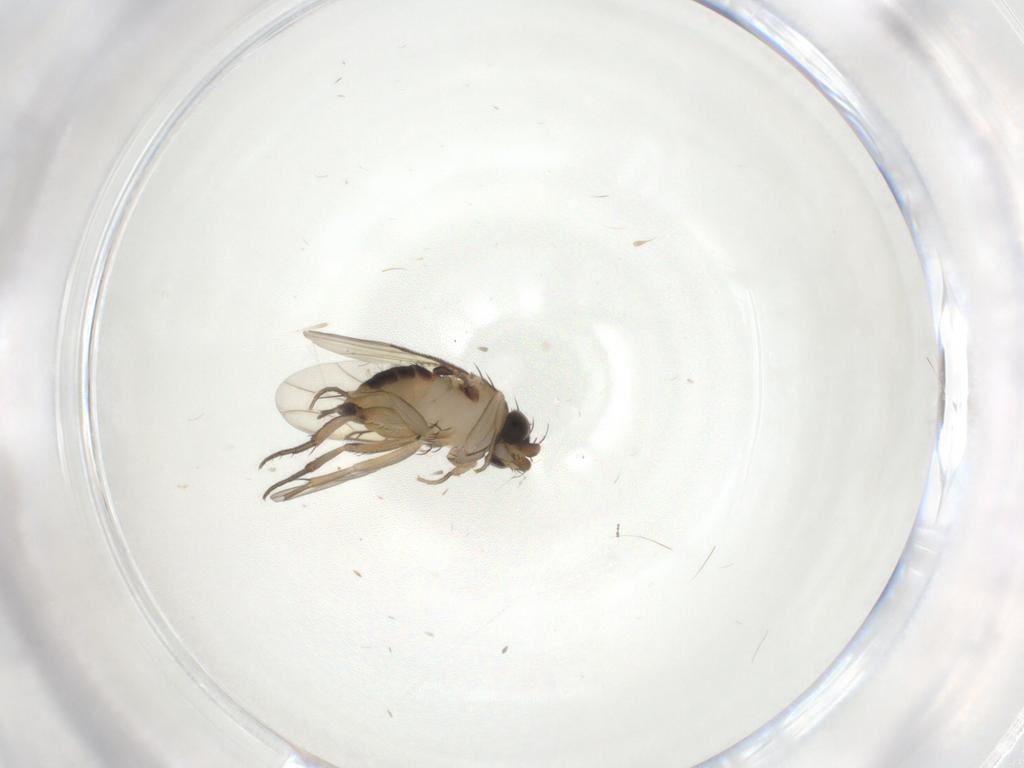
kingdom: Animalia
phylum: Arthropoda
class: Insecta
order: Diptera
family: Phoridae
